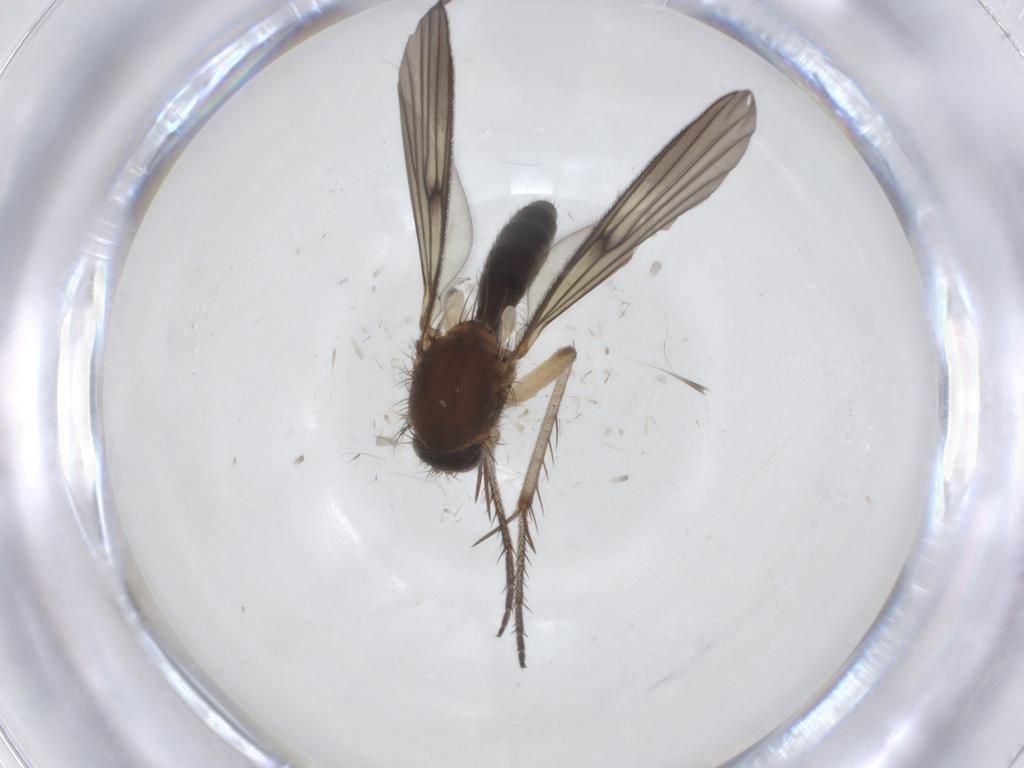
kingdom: Animalia
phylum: Arthropoda
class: Insecta
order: Diptera
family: Mycetophilidae
